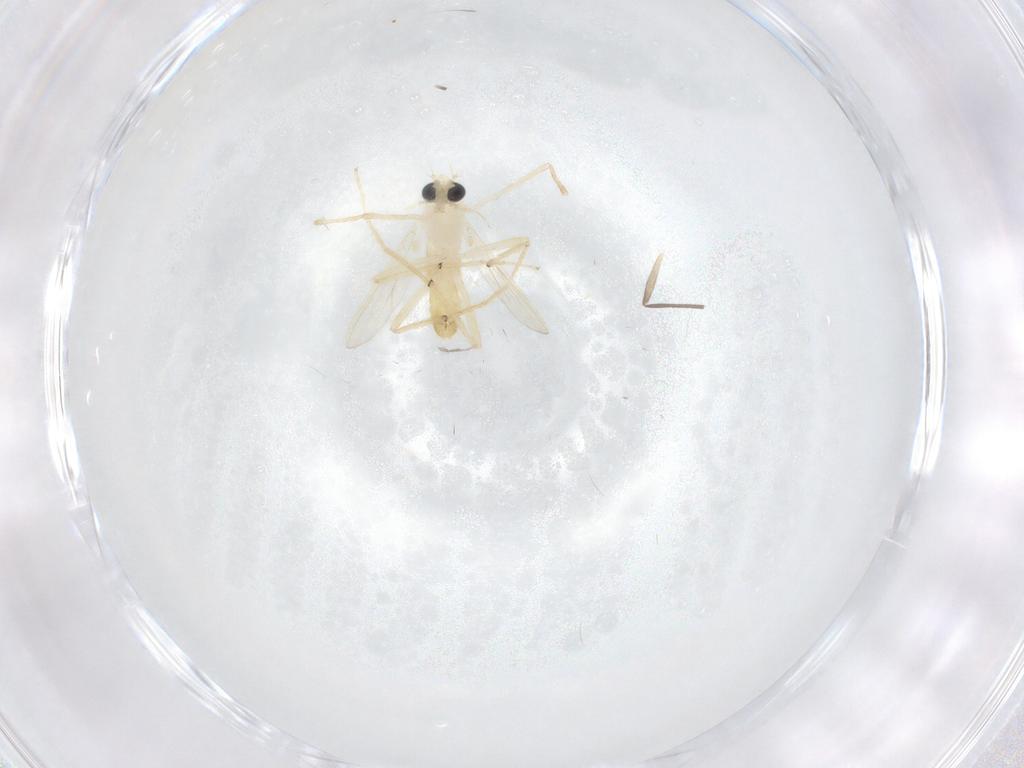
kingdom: Animalia
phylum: Arthropoda
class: Insecta
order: Diptera
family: Chironomidae
